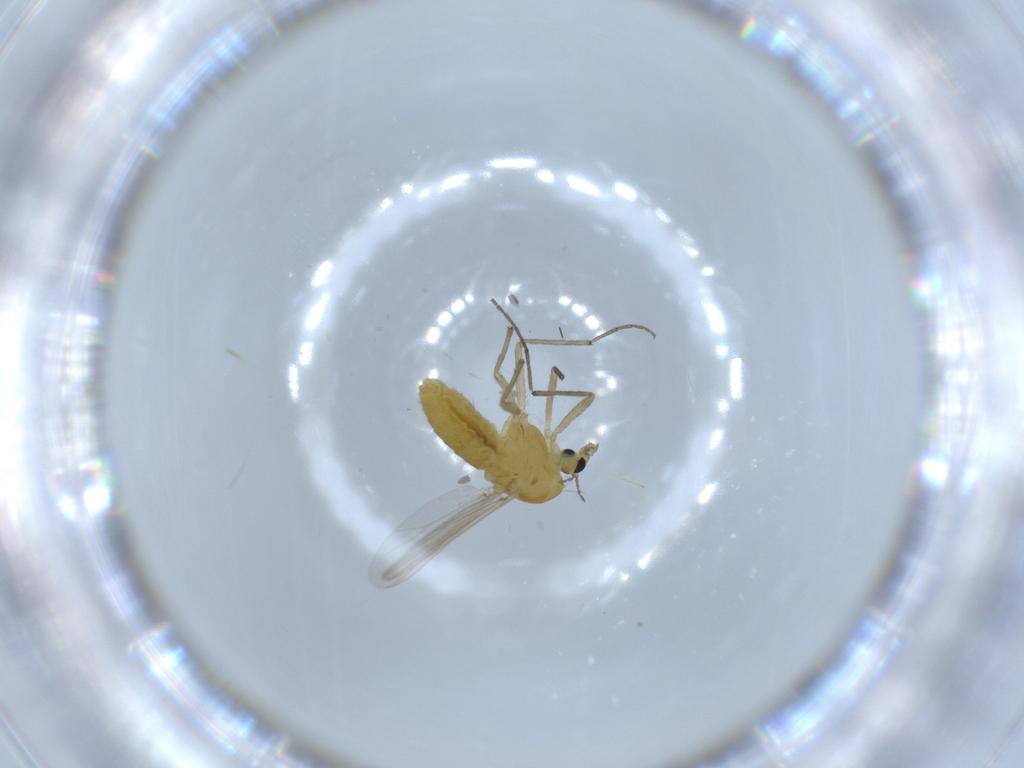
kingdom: Animalia
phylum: Arthropoda
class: Insecta
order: Diptera
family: Chironomidae
